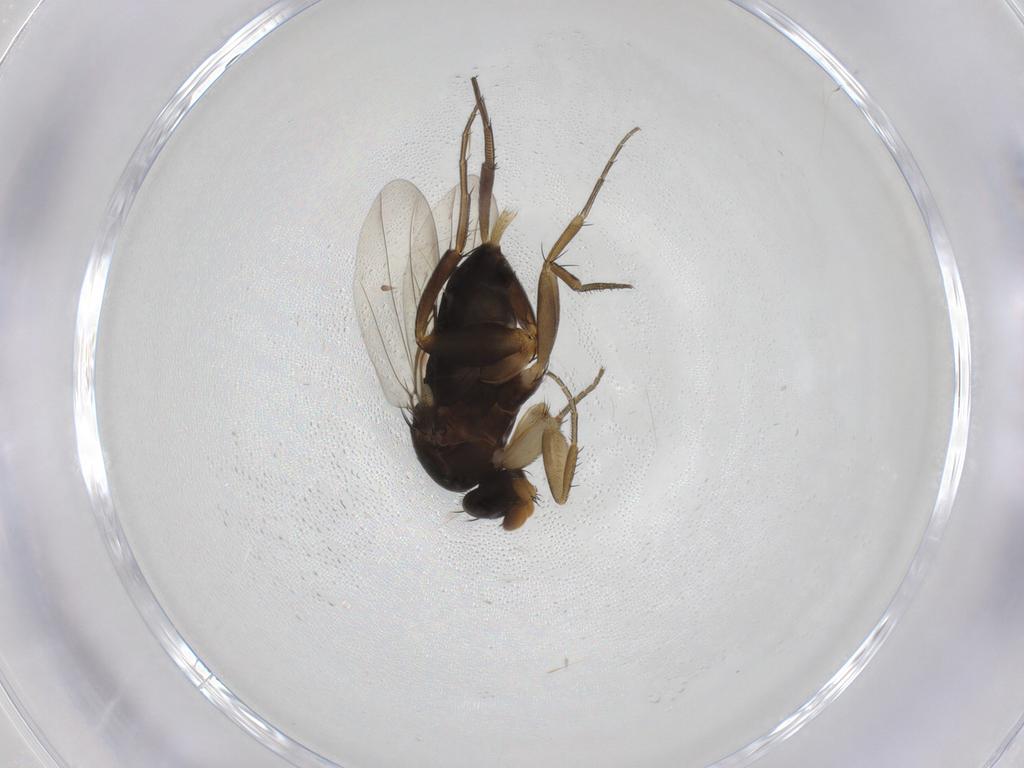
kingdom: Animalia
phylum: Arthropoda
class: Insecta
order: Diptera
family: Phoridae
